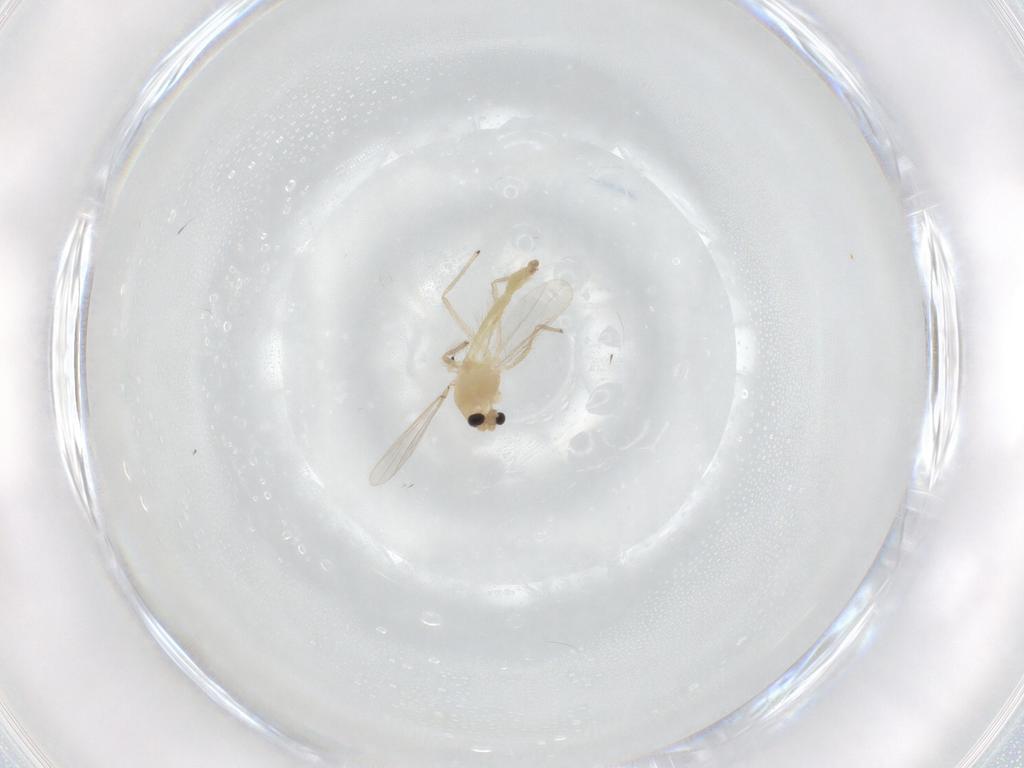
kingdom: Animalia
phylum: Arthropoda
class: Insecta
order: Diptera
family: Chironomidae
